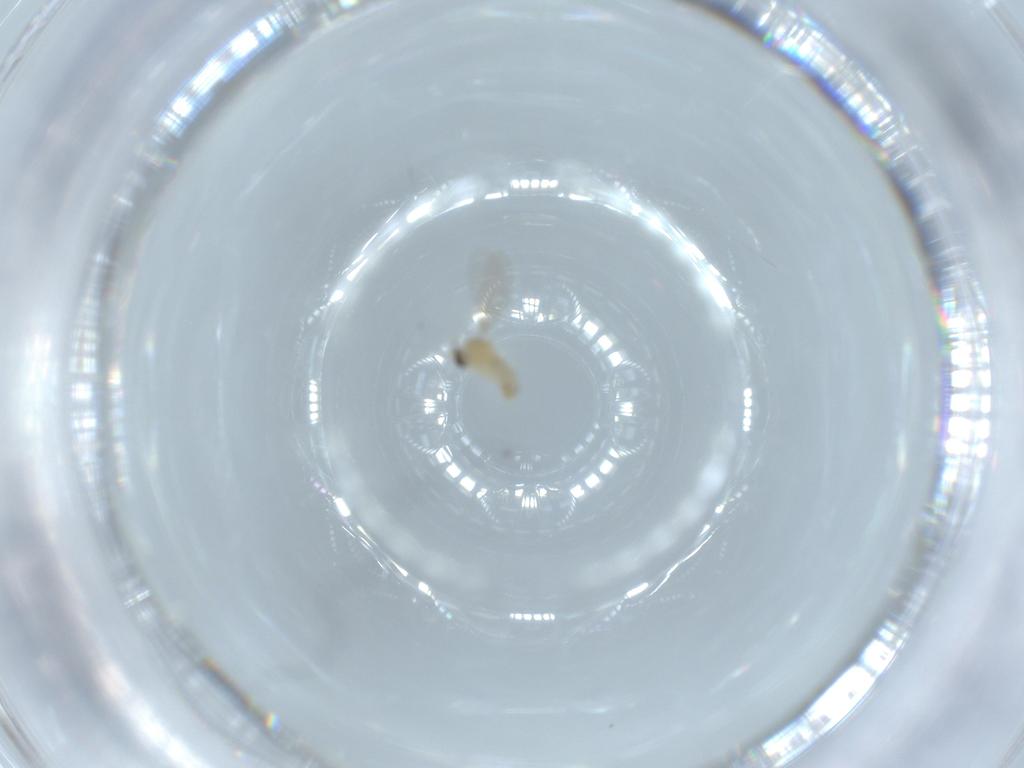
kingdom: Animalia
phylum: Arthropoda
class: Insecta
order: Diptera
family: Cecidomyiidae
